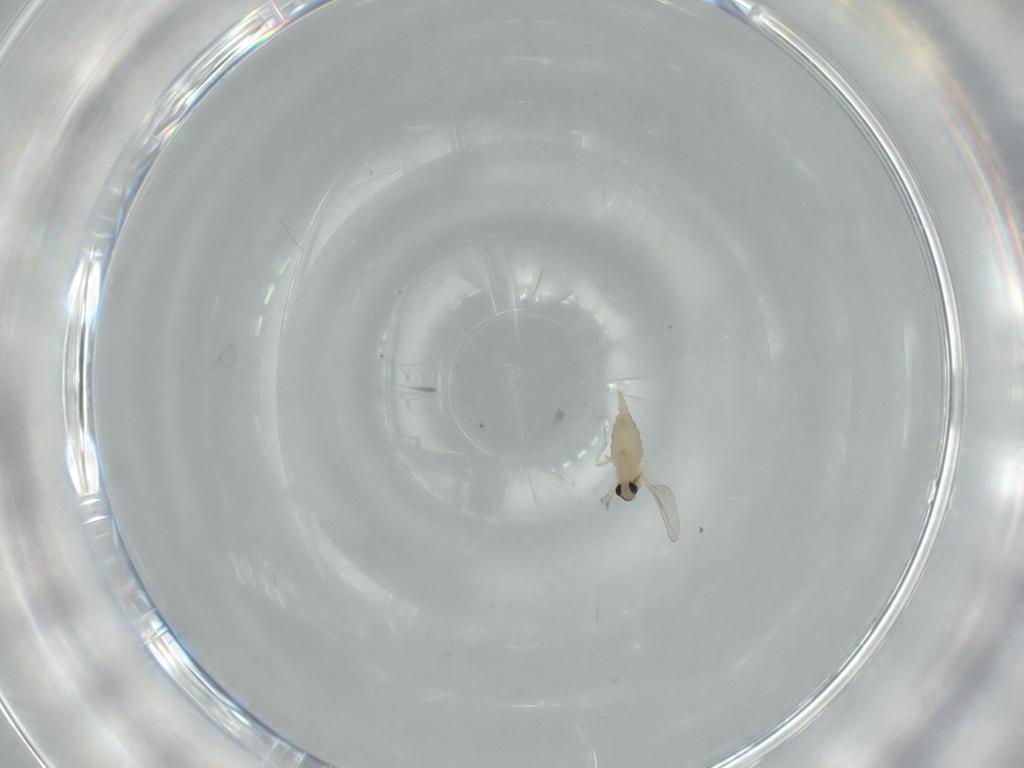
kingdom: Animalia
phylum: Arthropoda
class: Insecta
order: Diptera
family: Cecidomyiidae
